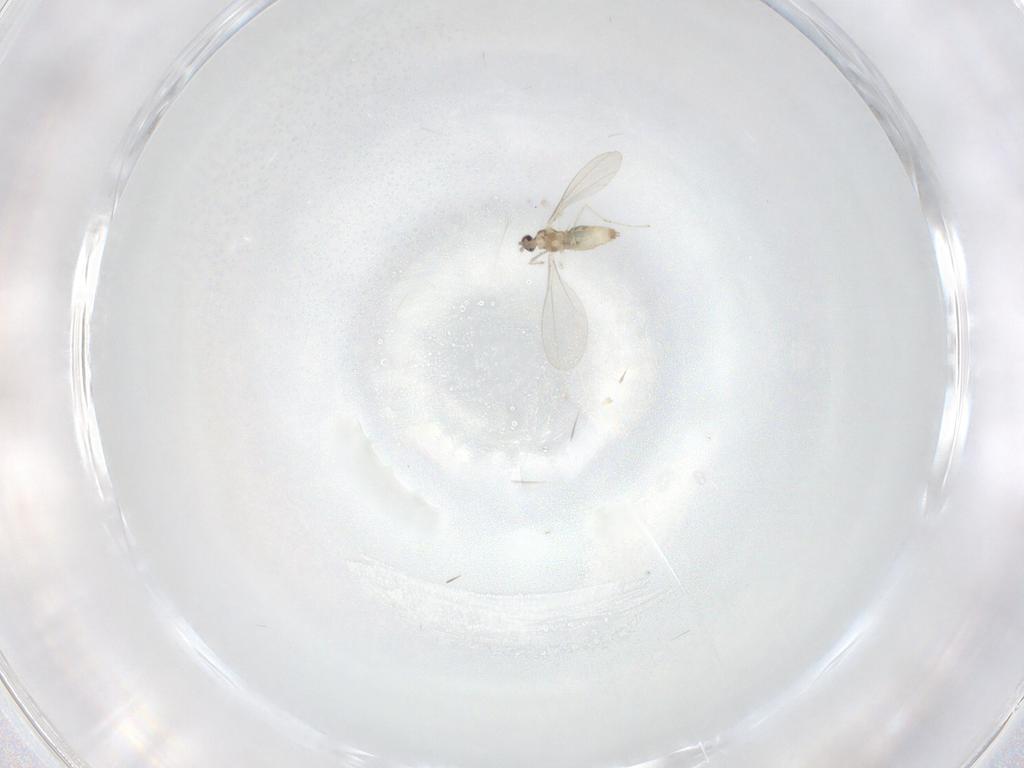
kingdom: Animalia
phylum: Arthropoda
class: Insecta
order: Diptera
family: Chloropidae
